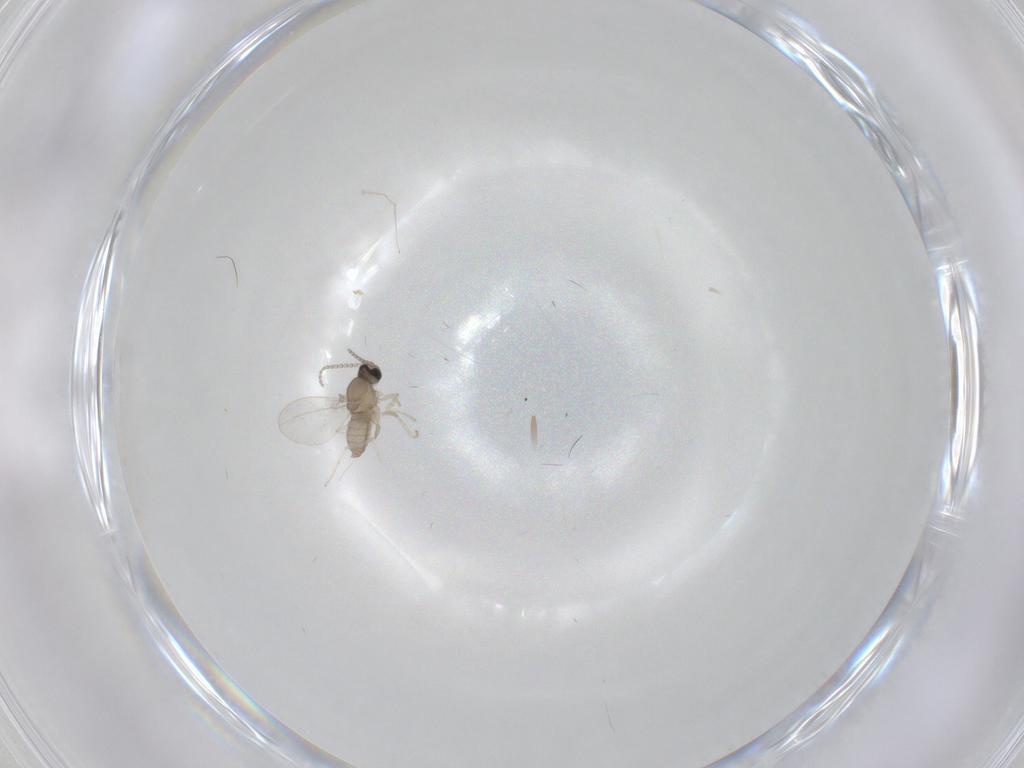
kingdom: Animalia
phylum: Arthropoda
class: Insecta
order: Diptera
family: Cecidomyiidae
